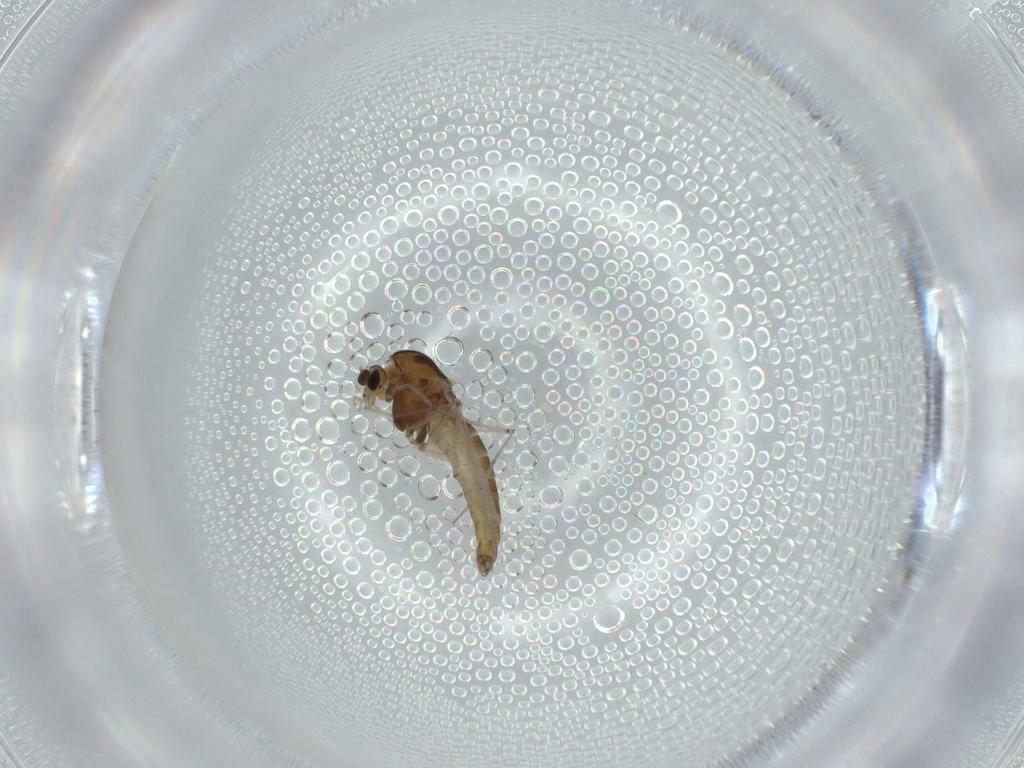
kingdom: Animalia
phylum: Arthropoda
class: Insecta
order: Diptera
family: Chironomidae
